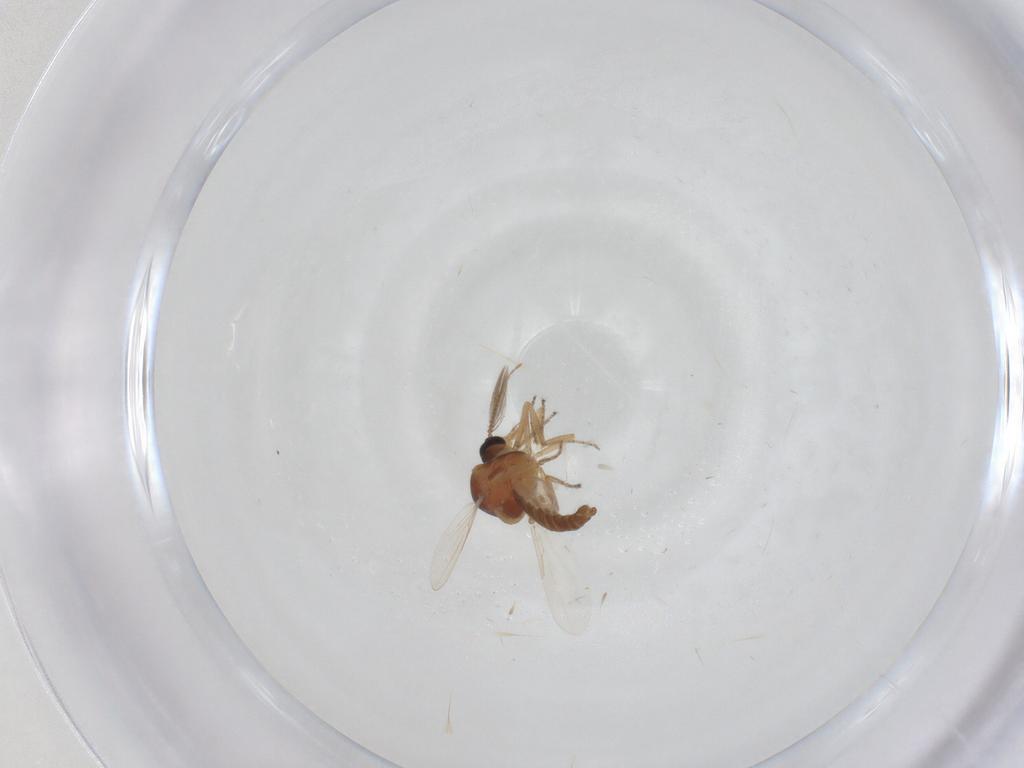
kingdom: Animalia
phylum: Arthropoda
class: Insecta
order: Diptera
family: Ceratopogonidae
